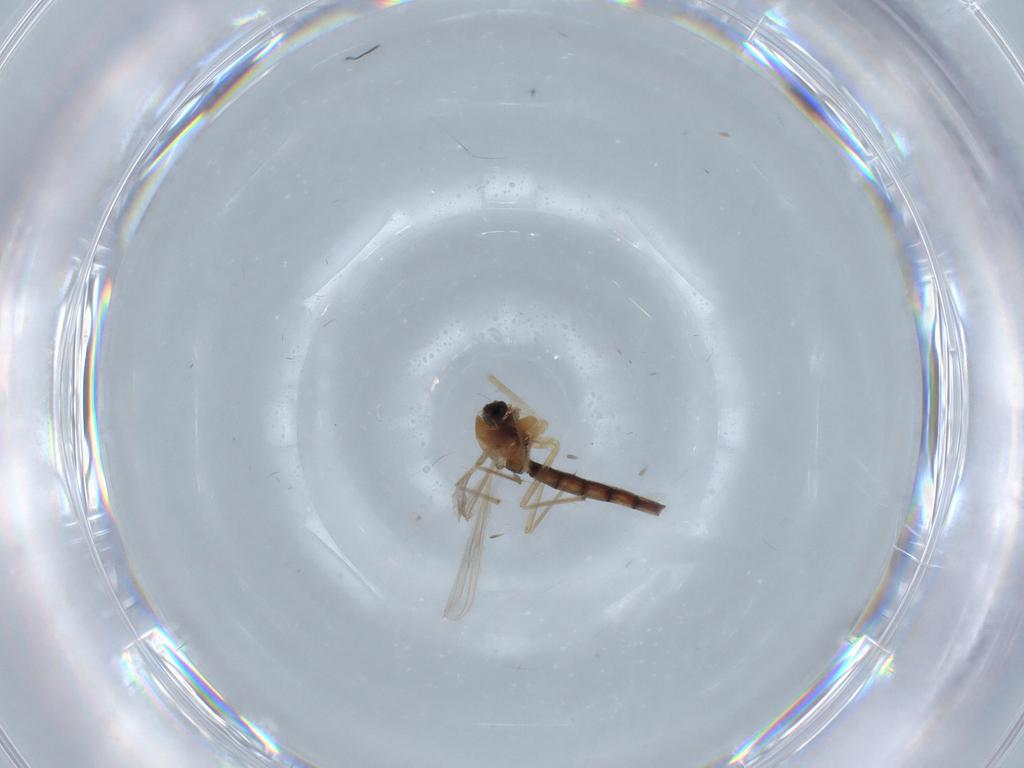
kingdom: Animalia
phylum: Arthropoda
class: Insecta
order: Diptera
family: Chironomidae
